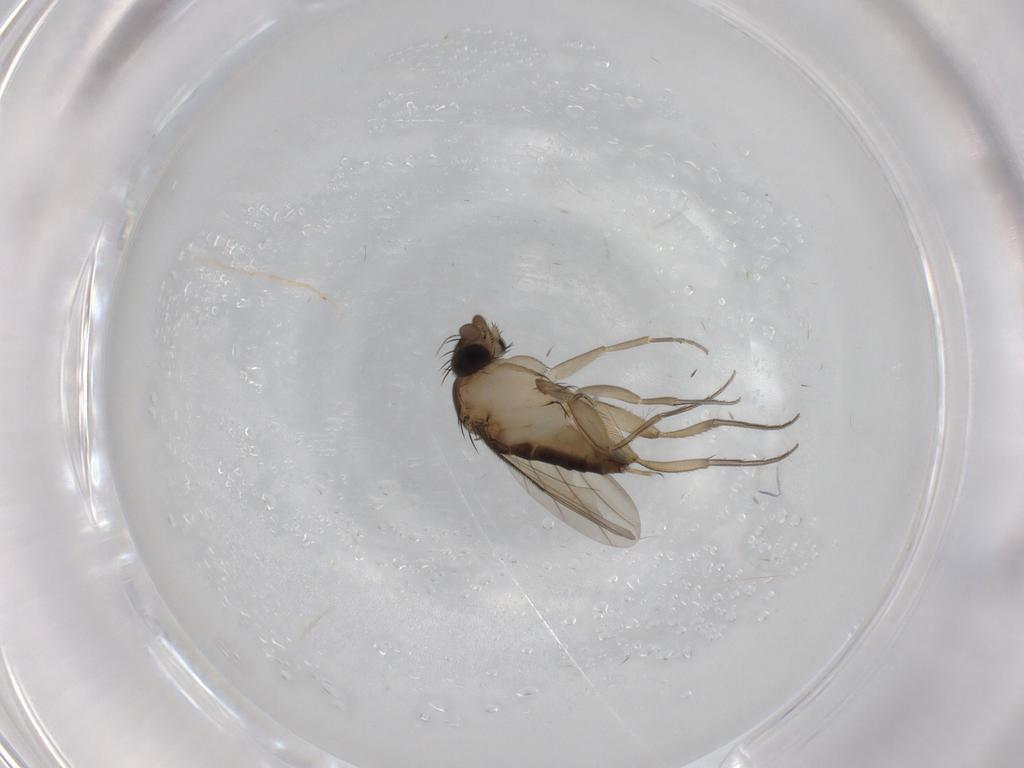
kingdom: Animalia
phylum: Arthropoda
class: Insecta
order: Diptera
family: Phoridae
